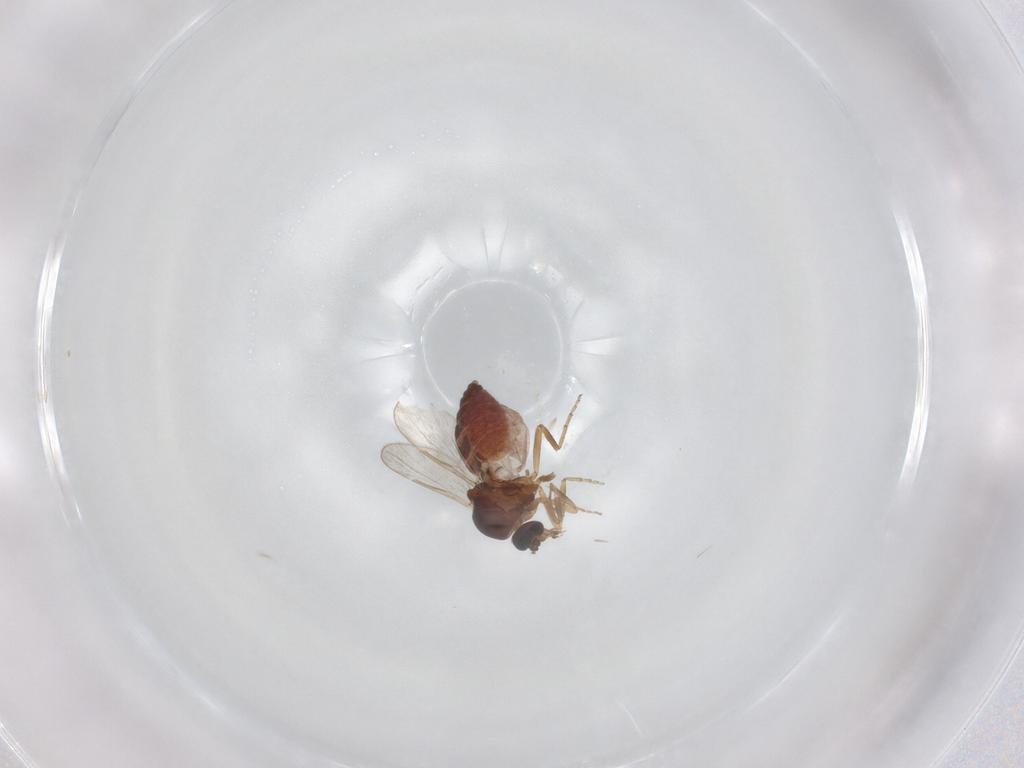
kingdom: Animalia
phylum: Arthropoda
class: Insecta
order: Diptera
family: Ceratopogonidae
